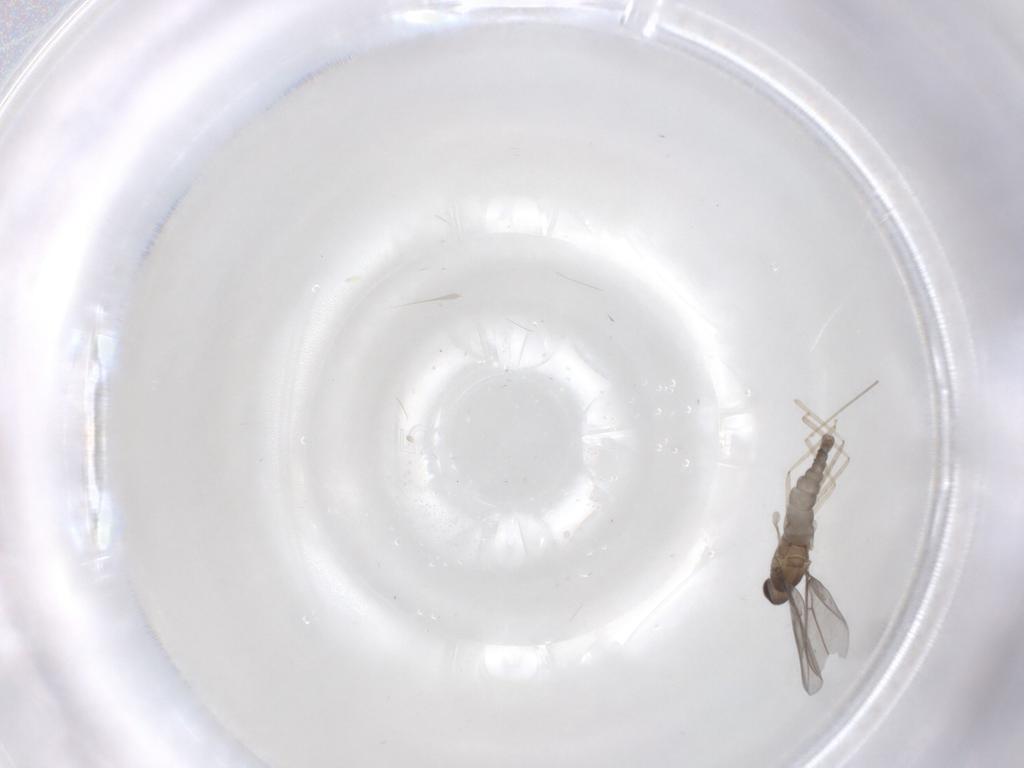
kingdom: Animalia
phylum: Arthropoda
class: Insecta
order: Diptera
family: Cecidomyiidae
